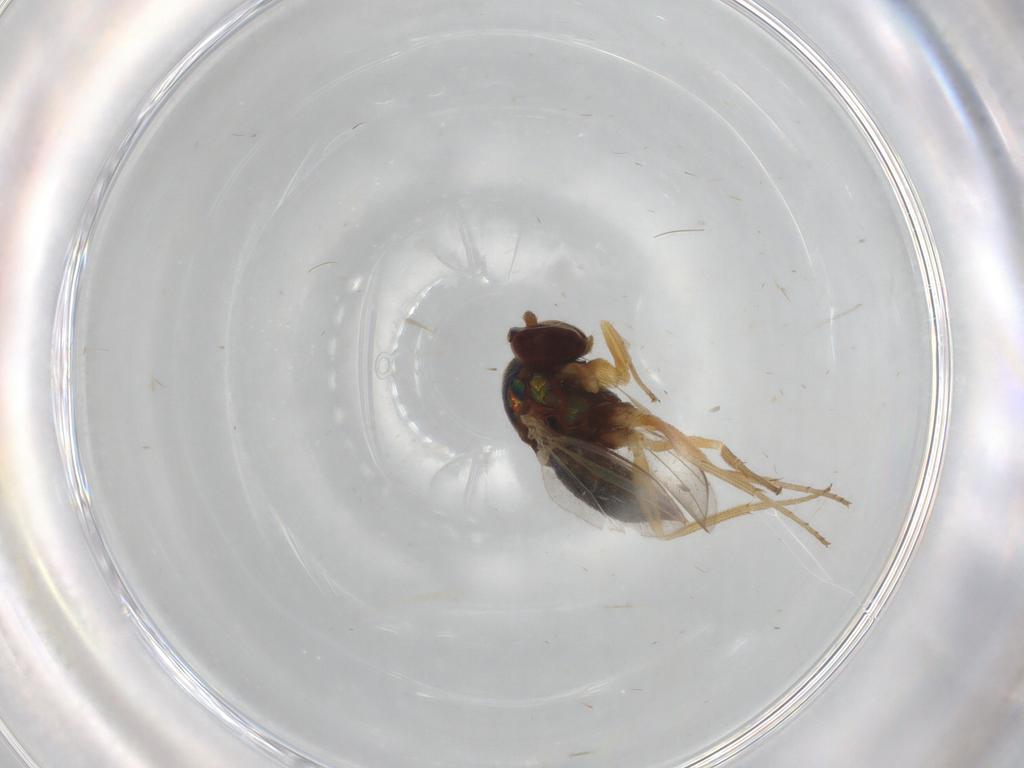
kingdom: Animalia
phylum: Arthropoda
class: Insecta
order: Diptera
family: Dolichopodidae
